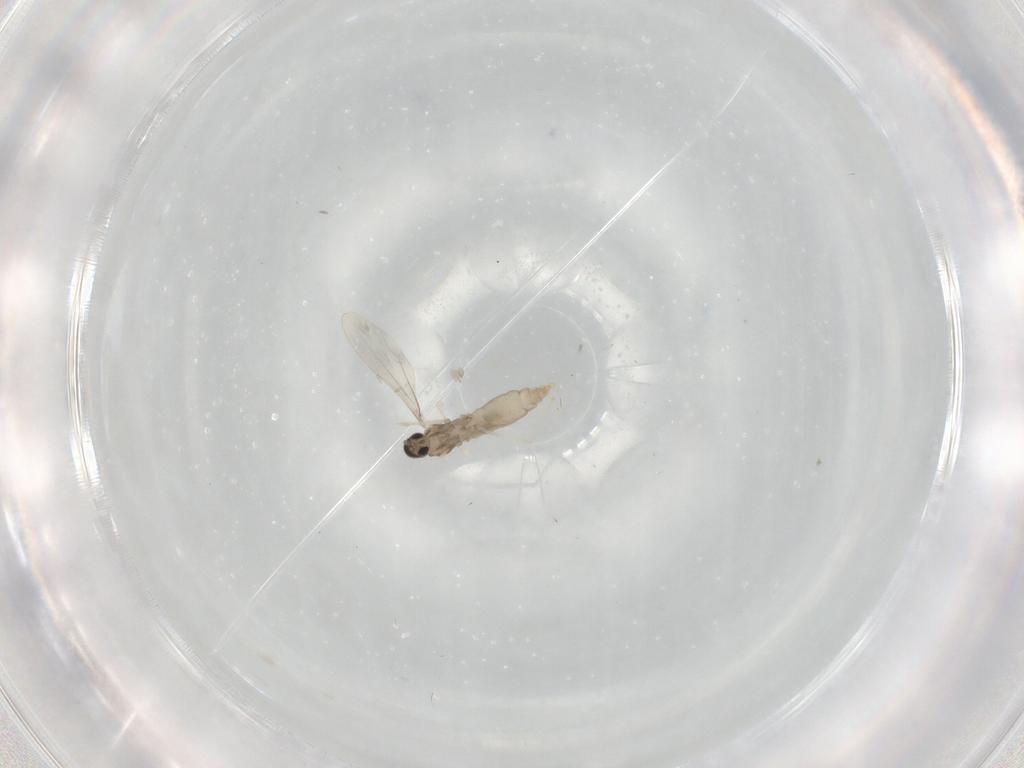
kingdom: Animalia
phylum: Arthropoda
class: Insecta
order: Diptera
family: Cecidomyiidae
